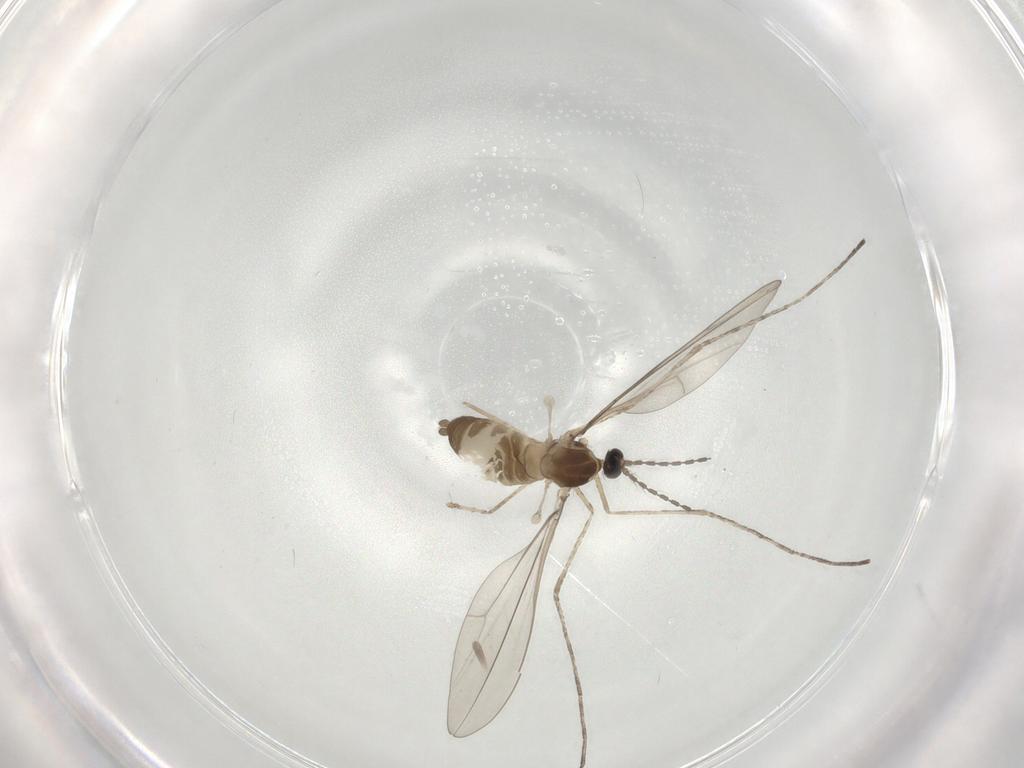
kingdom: Animalia
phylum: Arthropoda
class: Insecta
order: Diptera
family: Cecidomyiidae
